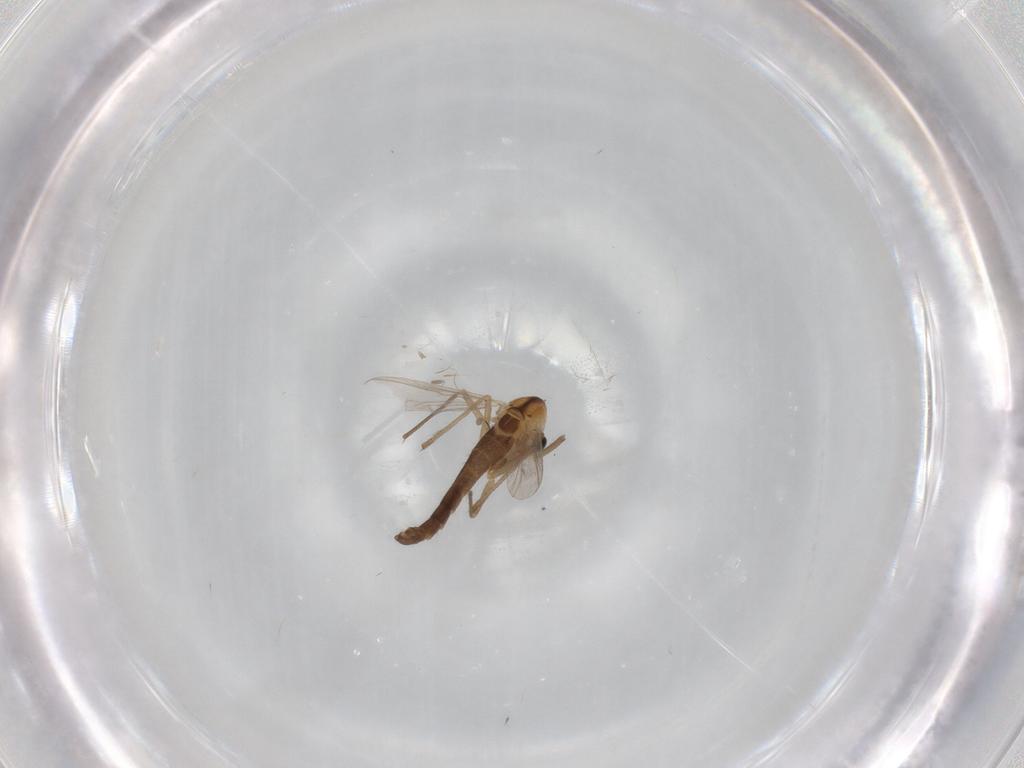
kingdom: Animalia
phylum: Arthropoda
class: Insecta
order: Diptera
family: Chironomidae
